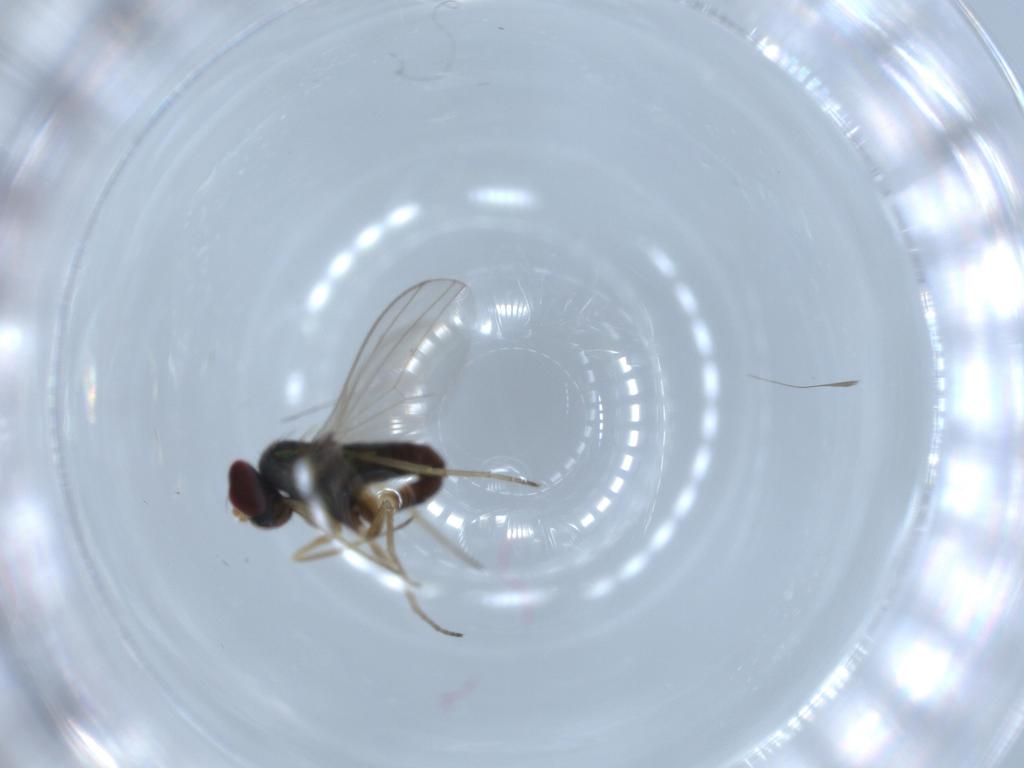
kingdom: Animalia
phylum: Arthropoda
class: Insecta
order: Diptera
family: Dolichopodidae
